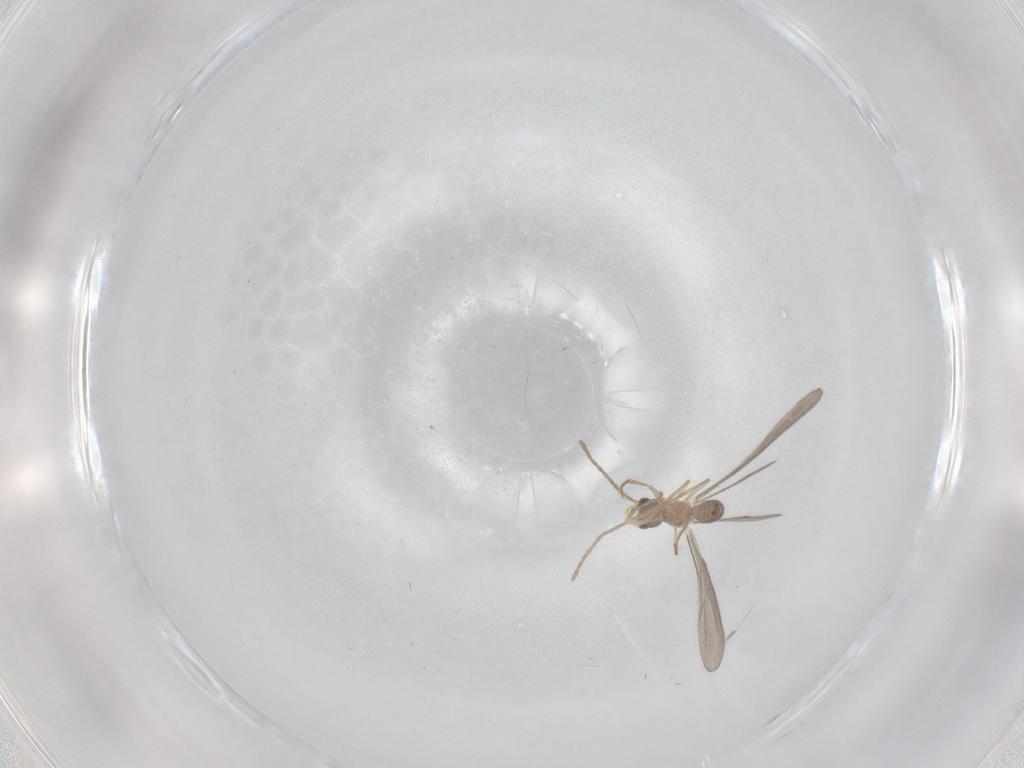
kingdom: Animalia
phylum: Arthropoda
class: Insecta
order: Hymenoptera
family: Formicidae
